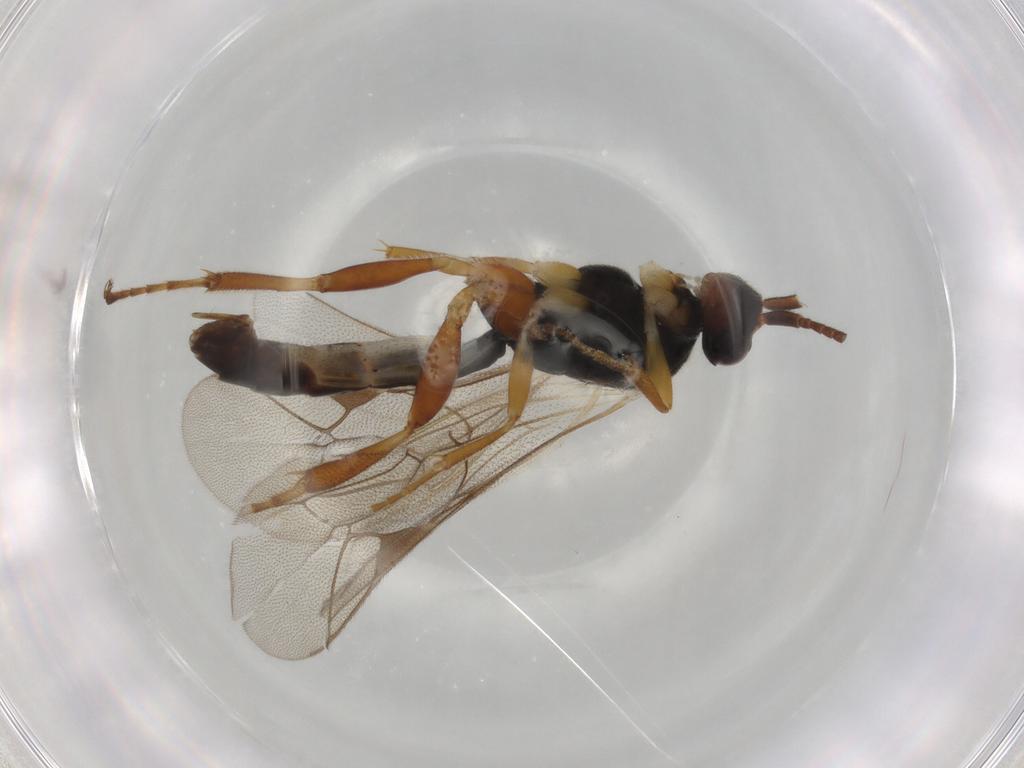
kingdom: Animalia
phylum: Arthropoda
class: Insecta
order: Hymenoptera
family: Ichneumonidae
